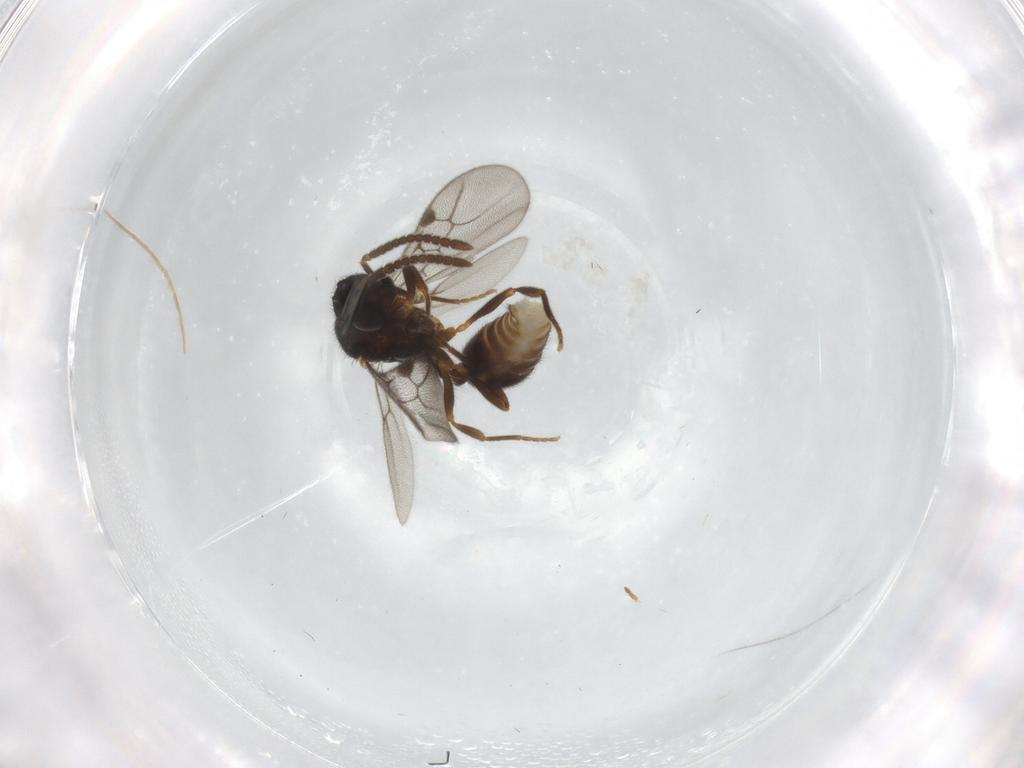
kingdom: Animalia
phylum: Arthropoda
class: Insecta
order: Hymenoptera
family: Formicidae
